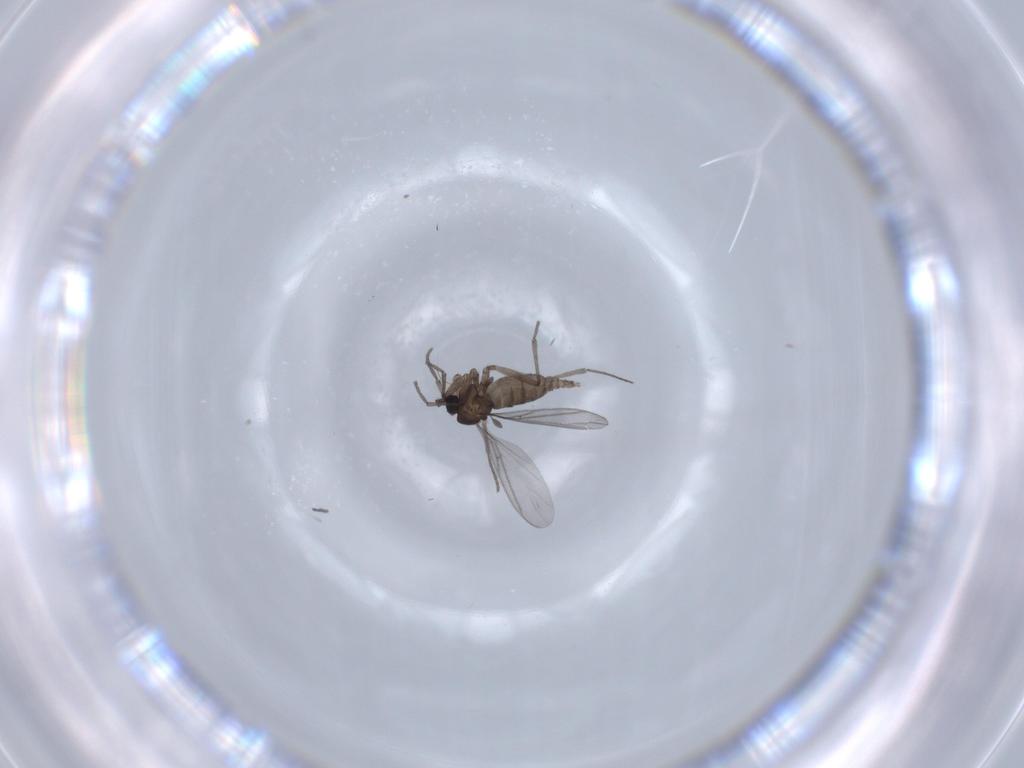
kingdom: Animalia
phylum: Arthropoda
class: Insecta
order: Diptera
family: Sciaridae
